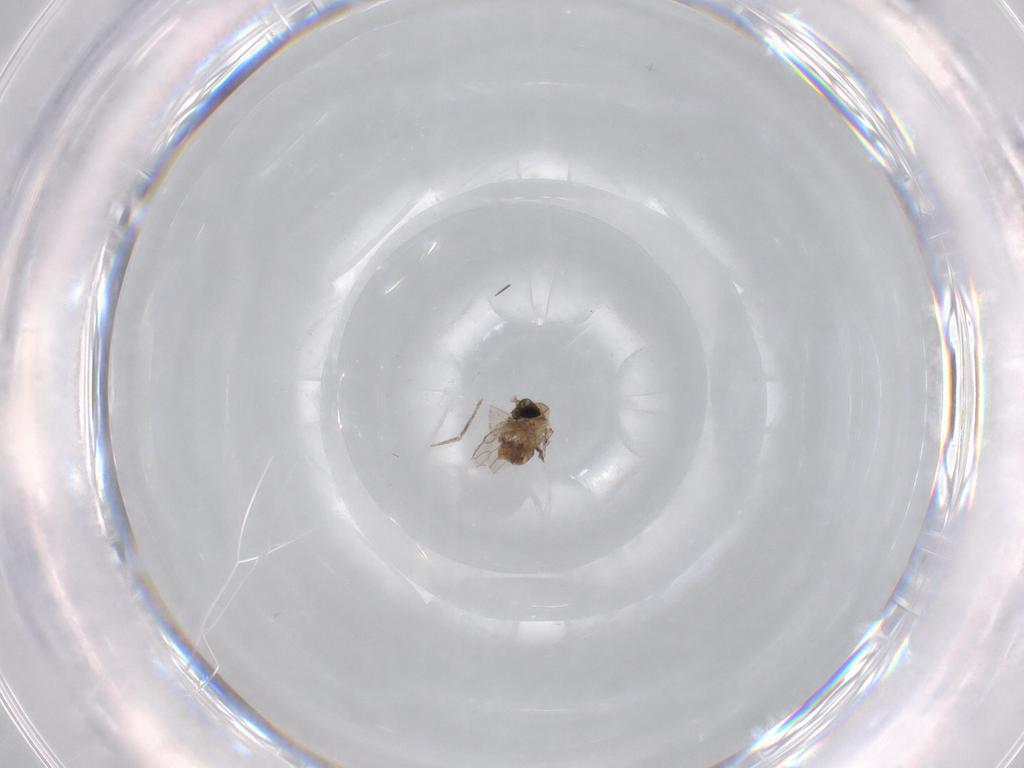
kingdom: Animalia
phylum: Arthropoda
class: Insecta
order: Diptera
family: Psychodidae
